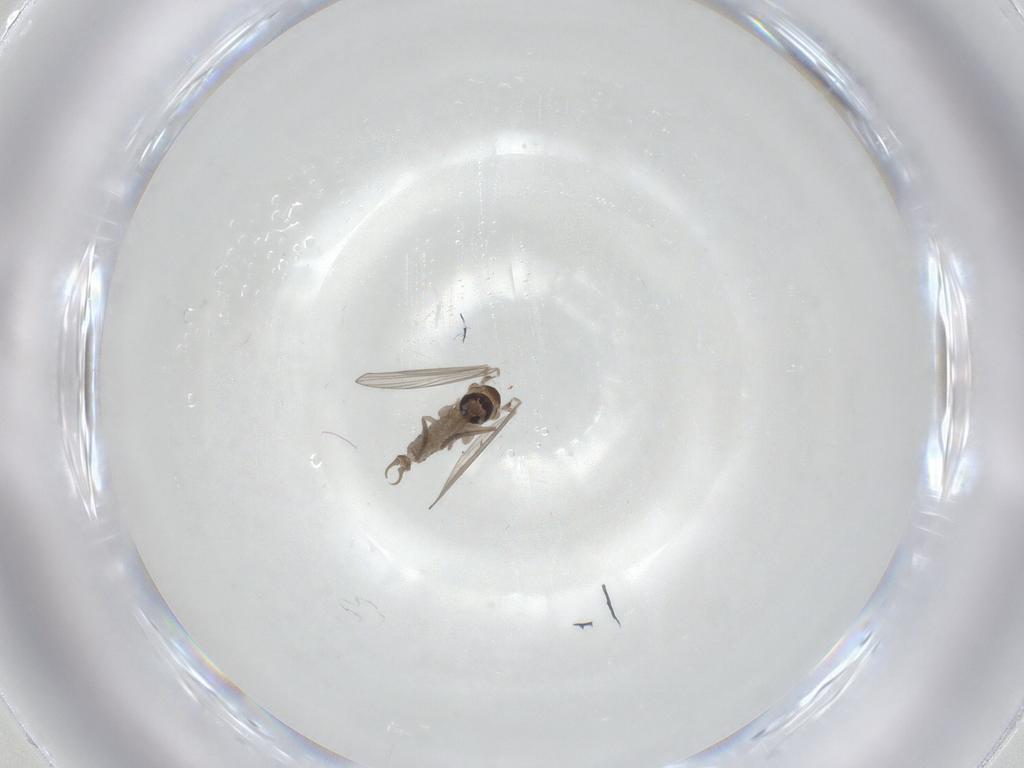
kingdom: Animalia
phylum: Arthropoda
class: Insecta
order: Diptera
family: Psychodidae
